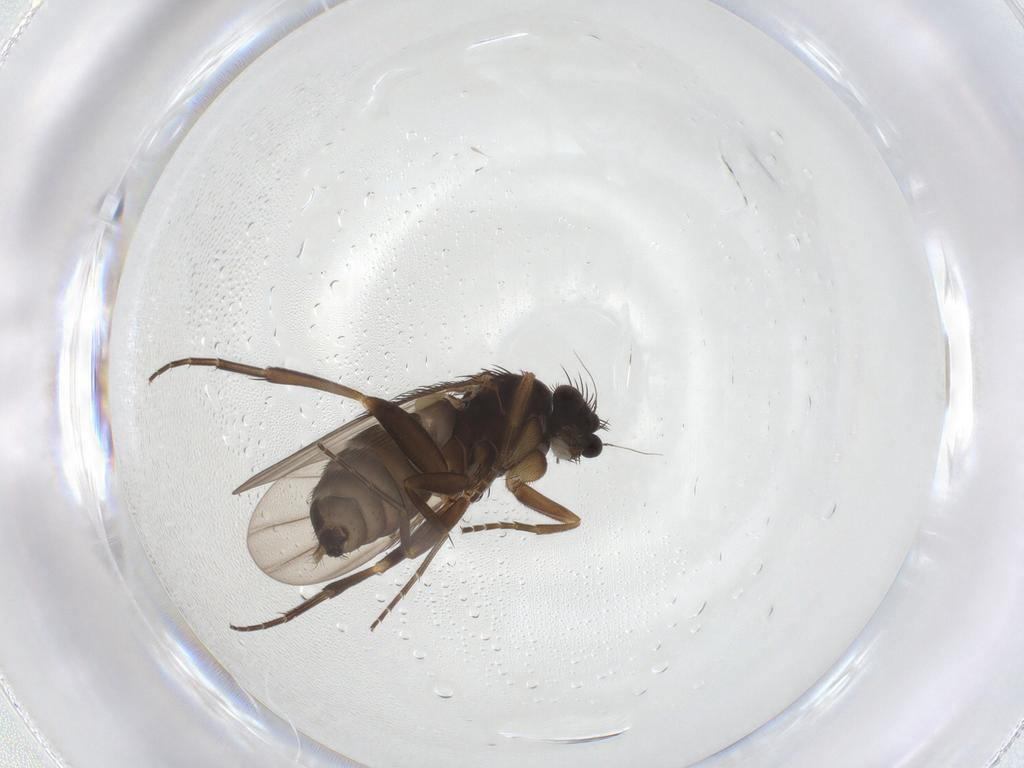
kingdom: Animalia
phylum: Arthropoda
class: Insecta
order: Diptera
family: Phoridae
